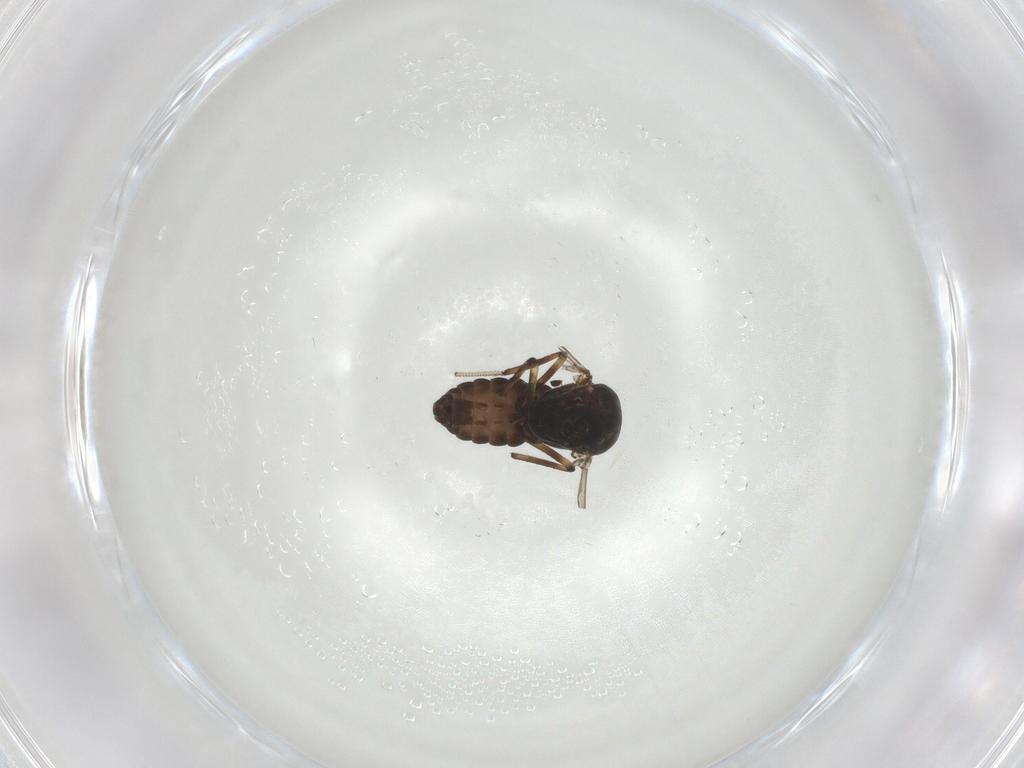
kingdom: Animalia
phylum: Arthropoda
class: Insecta
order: Diptera
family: Ceratopogonidae
